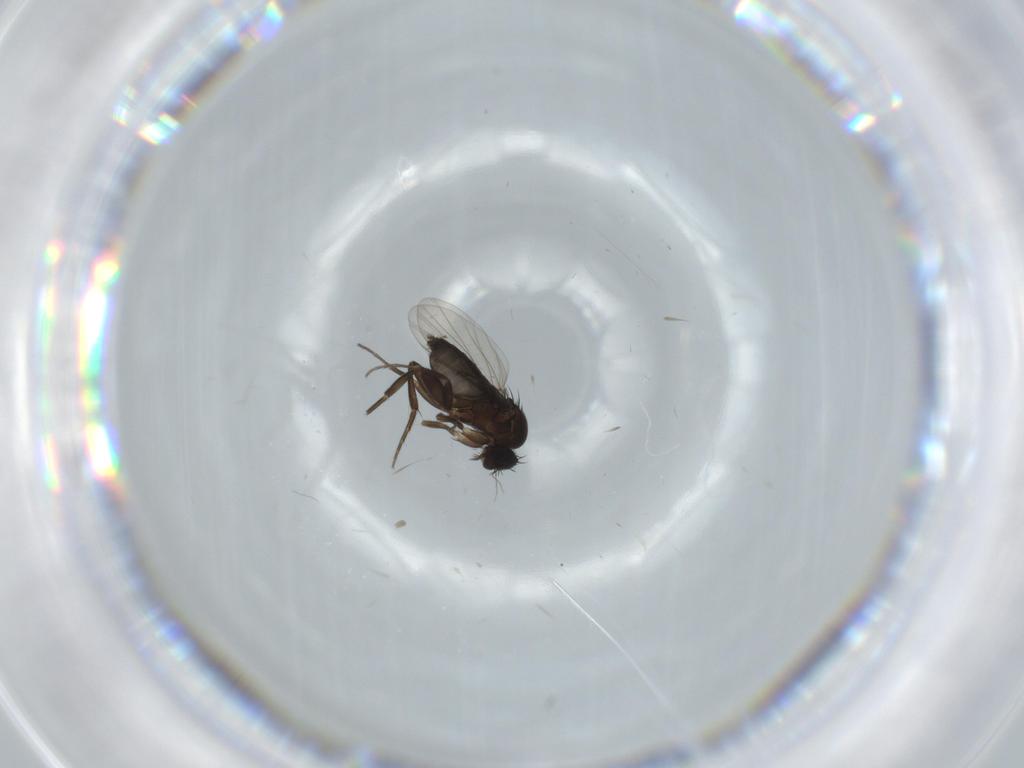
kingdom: Animalia
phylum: Arthropoda
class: Insecta
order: Diptera
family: Phoridae
